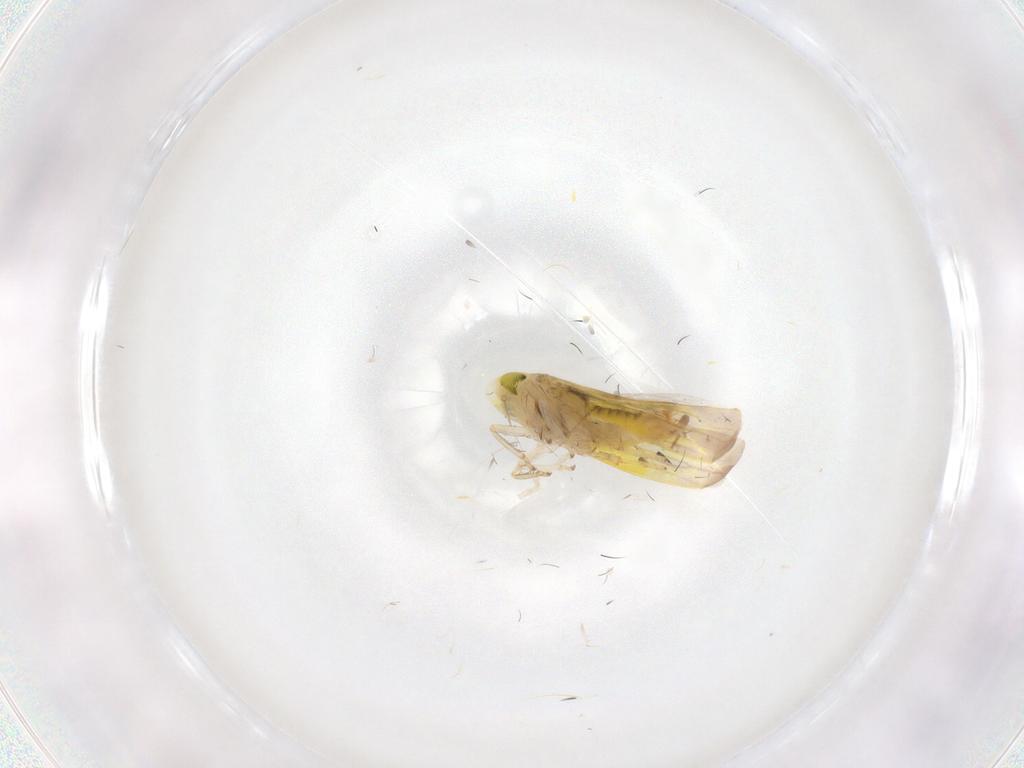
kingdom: Animalia
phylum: Arthropoda
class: Insecta
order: Hemiptera
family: Cicadellidae
